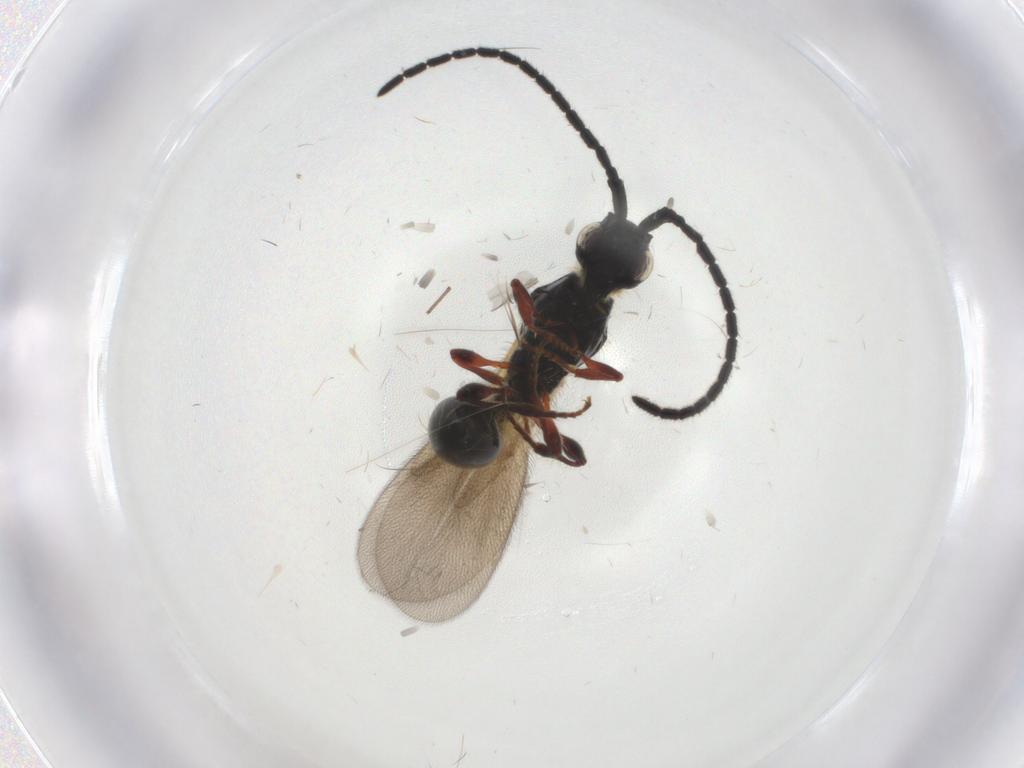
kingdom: Animalia
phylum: Arthropoda
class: Insecta
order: Hymenoptera
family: Diapriidae
